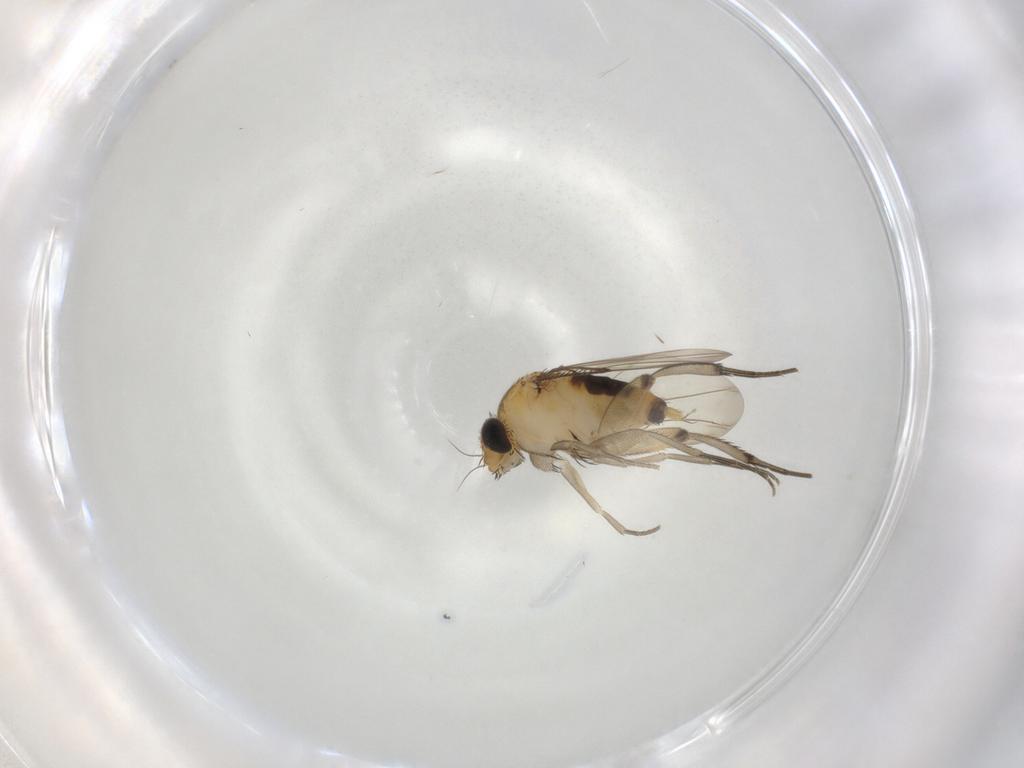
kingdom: Animalia
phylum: Arthropoda
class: Insecta
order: Diptera
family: Phoridae
